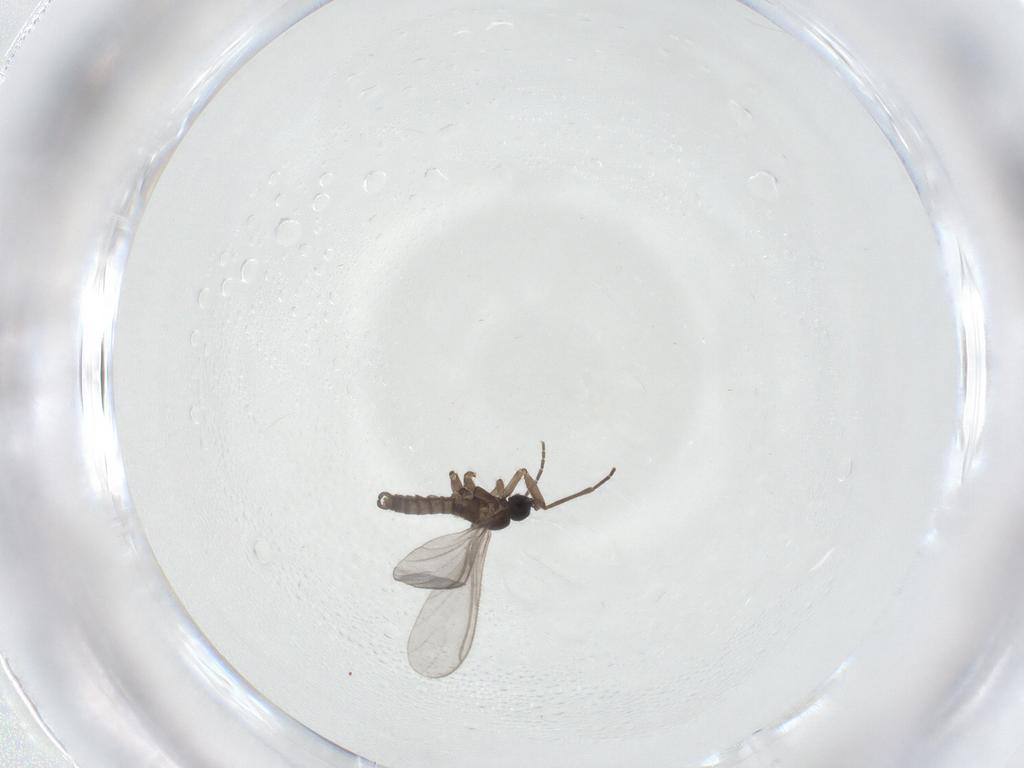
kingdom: Animalia
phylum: Arthropoda
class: Insecta
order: Diptera
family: Sciaridae
